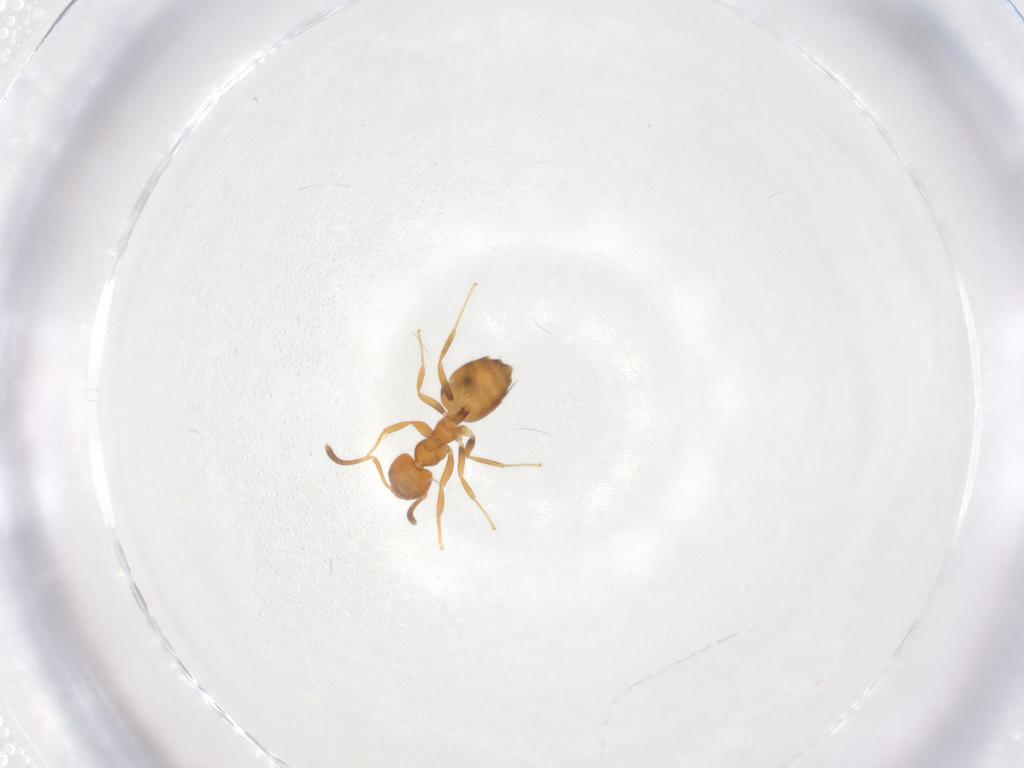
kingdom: Animalia
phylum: Arthropoda
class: Insecta
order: Hymenoptera
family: Formicidae
